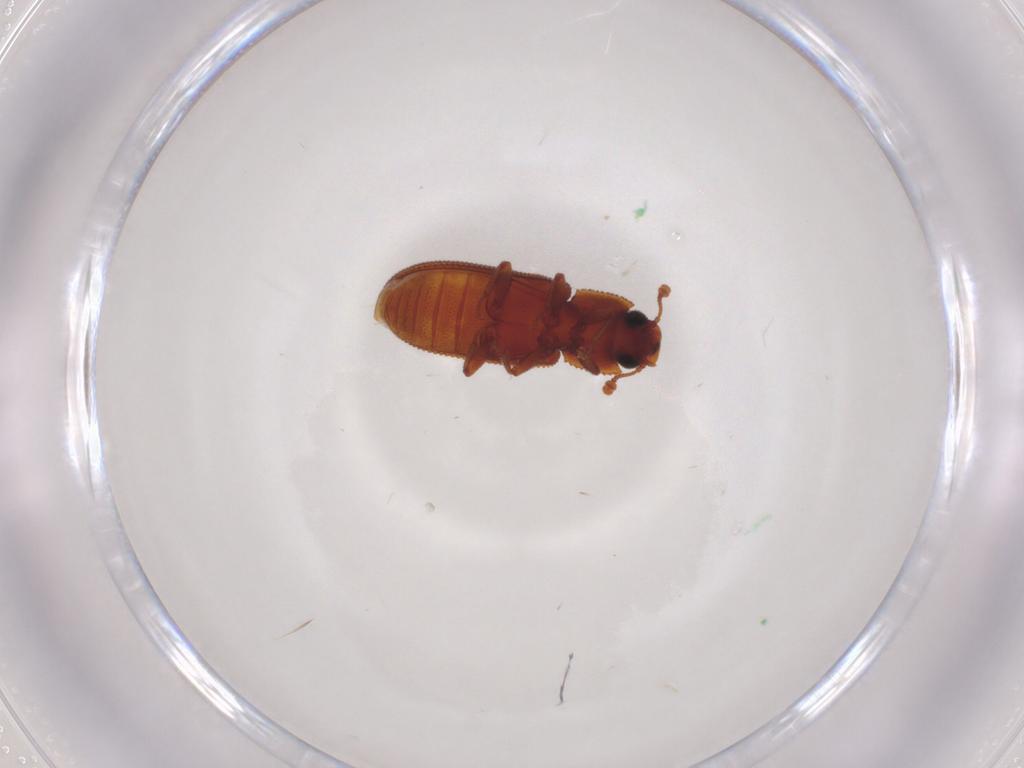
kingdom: Animalia
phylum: Arthropoda
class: Insecta
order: Coleoptera
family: Zopheridae
